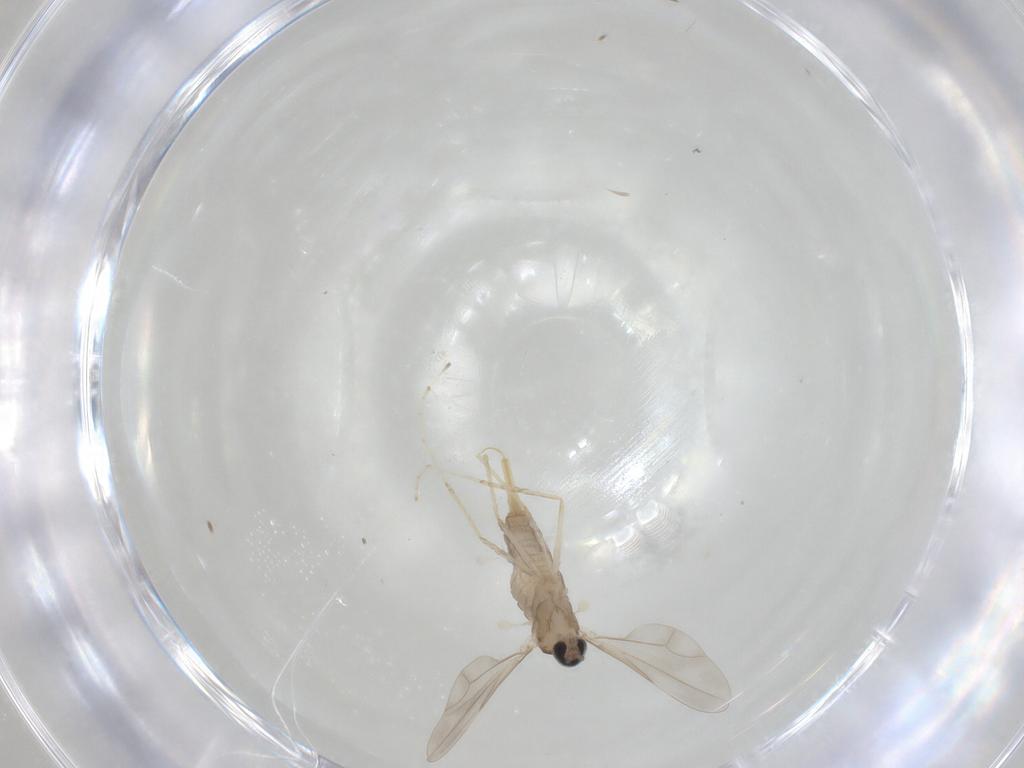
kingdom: Animalia
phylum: Arthropoda
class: Insecta
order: Diptera
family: Cecidomyiidae
